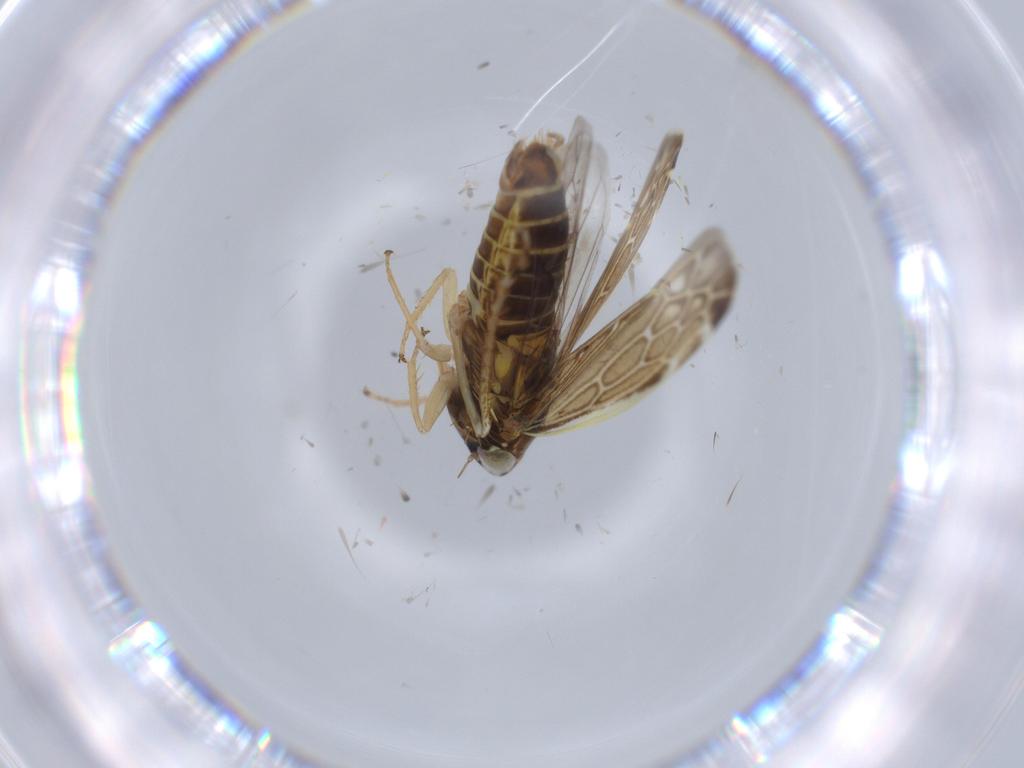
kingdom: Animalia
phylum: Arthropoda
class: Insecta
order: Hemiptera
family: Cicadellidae
